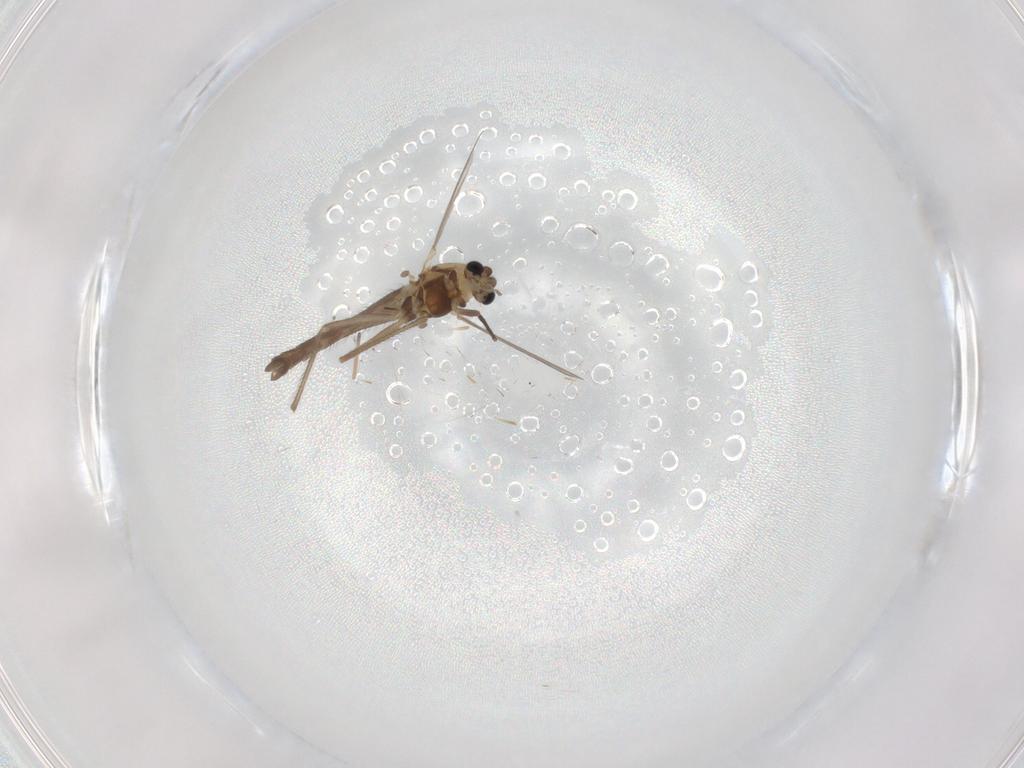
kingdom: Animalia
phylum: Arthropoda
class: Insecta
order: Diptera
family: Chironomidae
